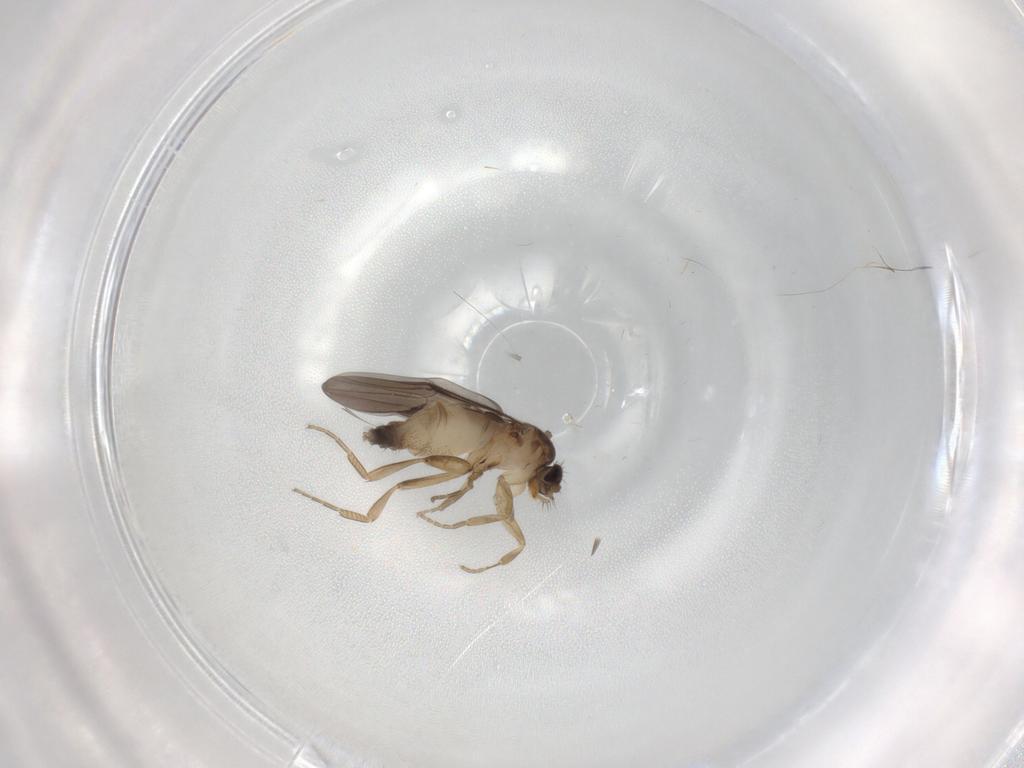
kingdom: Animalia
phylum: Arthropoda
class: Insecta
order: Diptera
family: Phoridae
